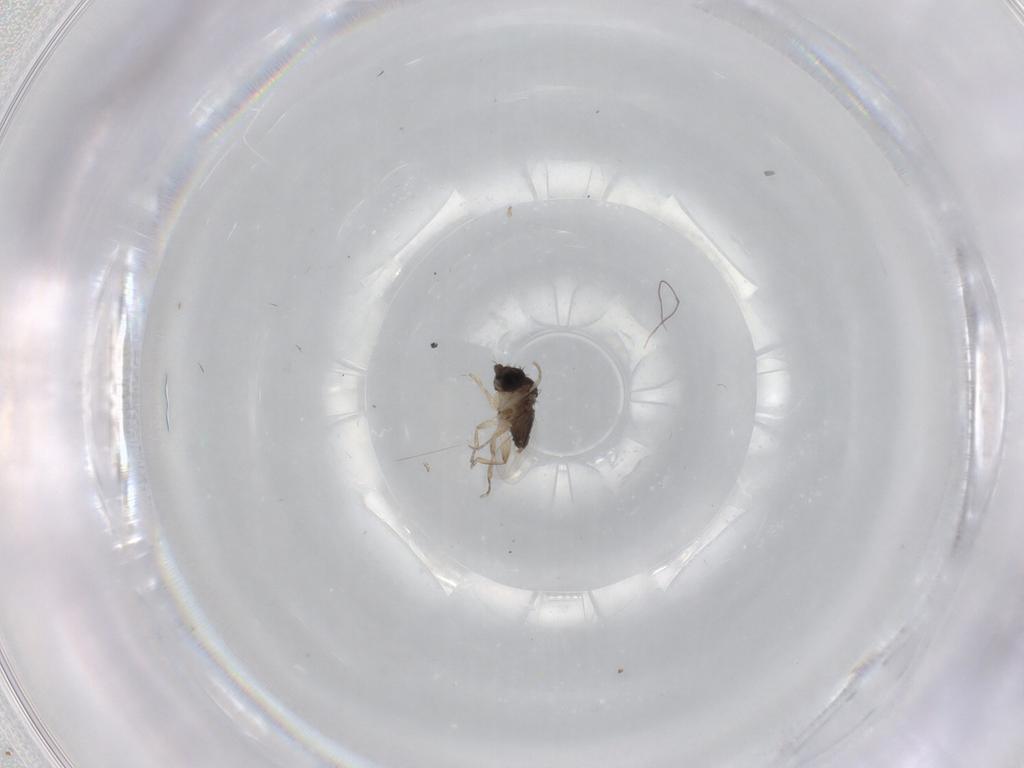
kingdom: Animalia
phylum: Arthropoda
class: Insecta
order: Diptera
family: Phoridae
